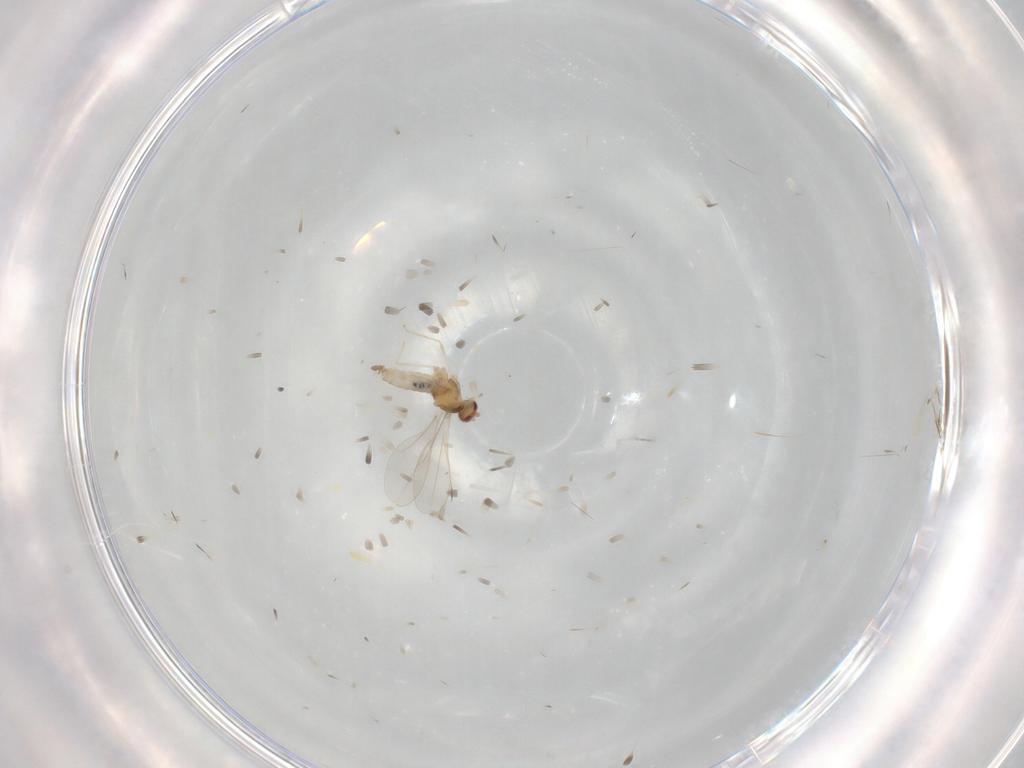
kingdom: Animalia
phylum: Arthropoda
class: Insecta
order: Diptera
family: Cecidomyiidae
